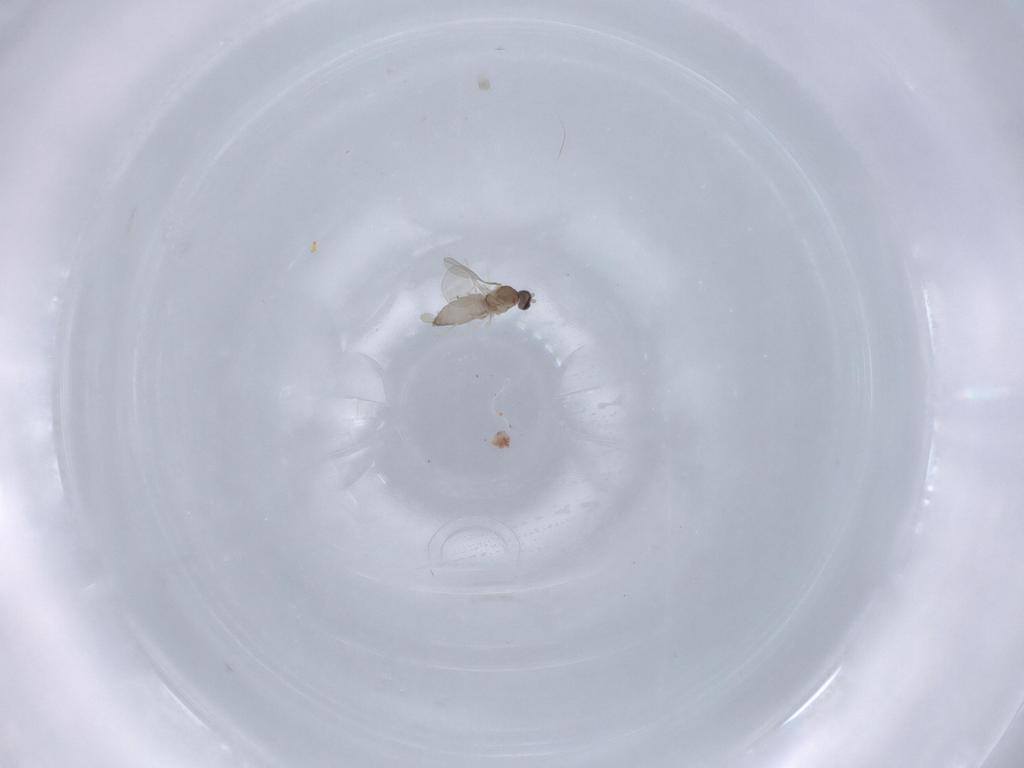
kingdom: Animalia
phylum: Arthropoda
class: Insecta
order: Diptera
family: Cecidomyiidae
